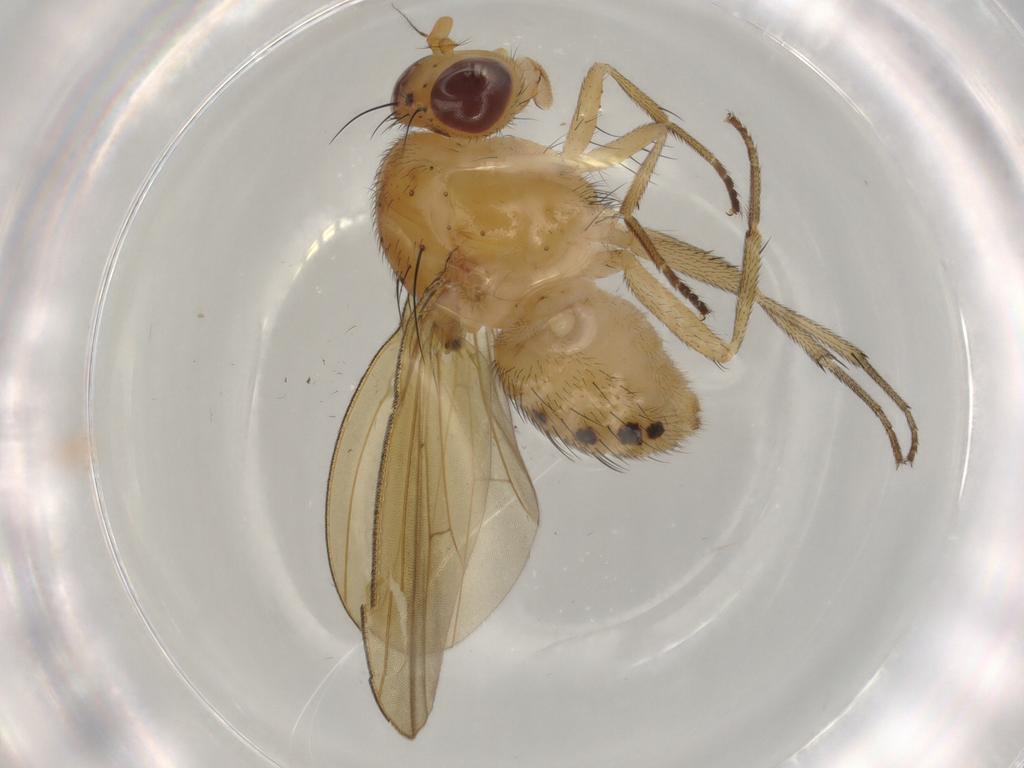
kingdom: Animalia
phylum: Arthropoda
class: Insecta
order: Diptera
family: Lauxaniidae
